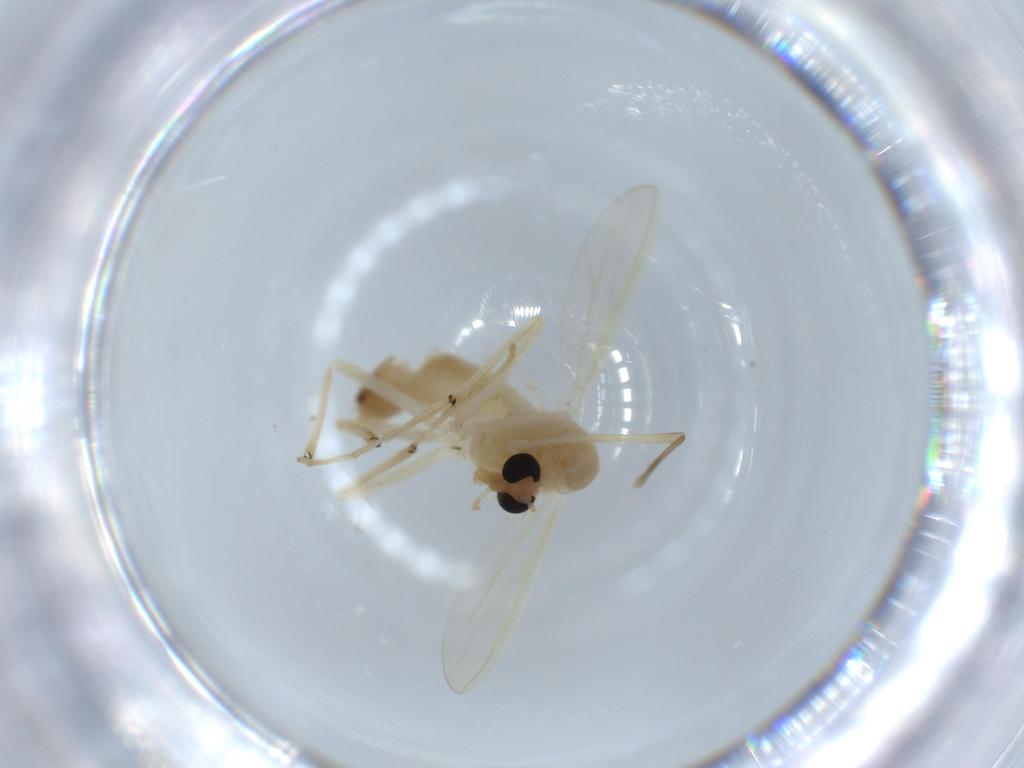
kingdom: Animalia
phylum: Arthropoda
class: Insecta
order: Diptera
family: Chironomidae
